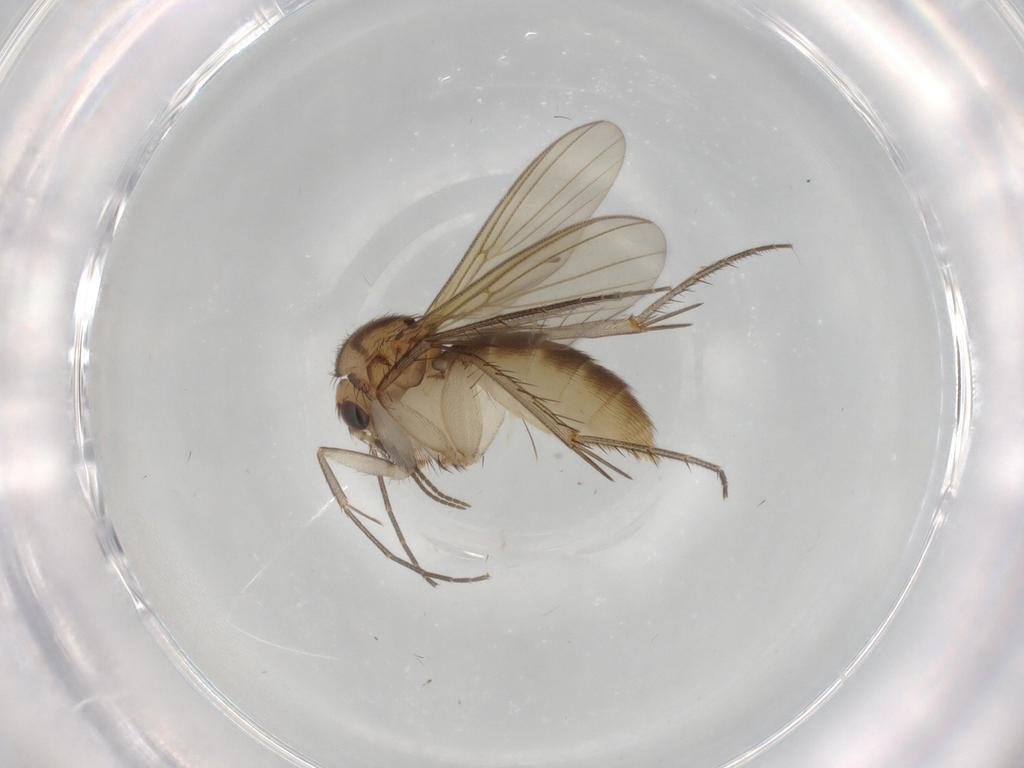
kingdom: Animalia
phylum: Arthropoda
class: Insecta
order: Diptera
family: Mycetophilidae
